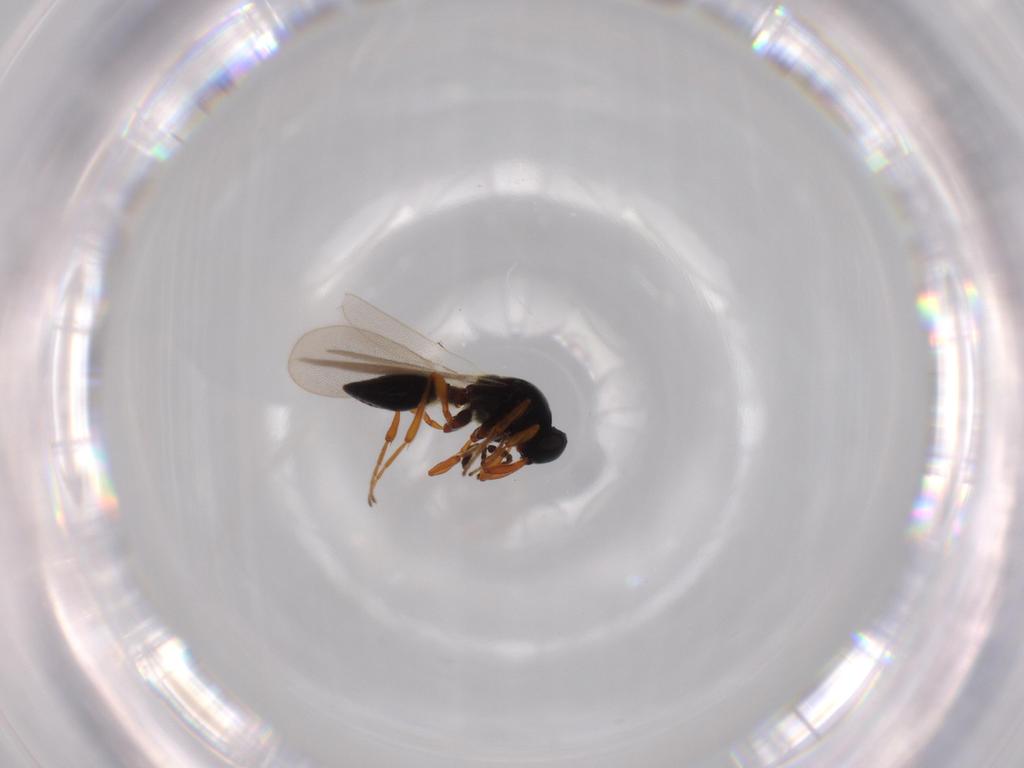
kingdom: Animalia
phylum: Arthropoda
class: Insecta
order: Hymenoptera
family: Platygastridae
